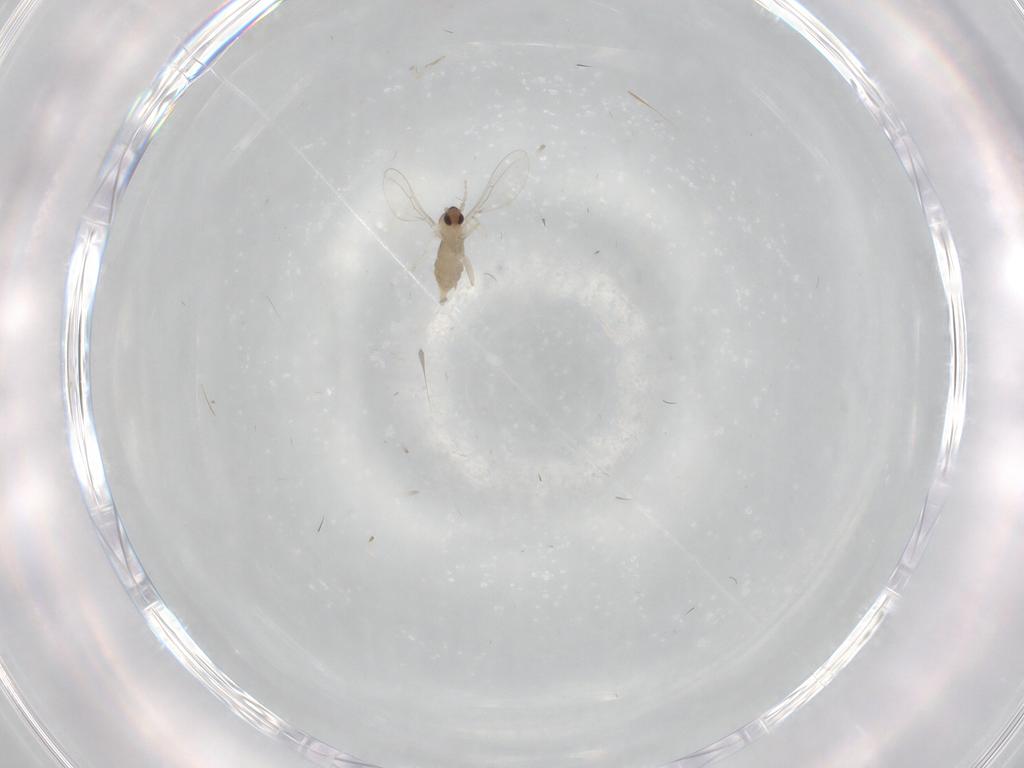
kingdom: Animalia
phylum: Arthropoda
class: Insecta
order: Diptera
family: Cecidomyiidae
